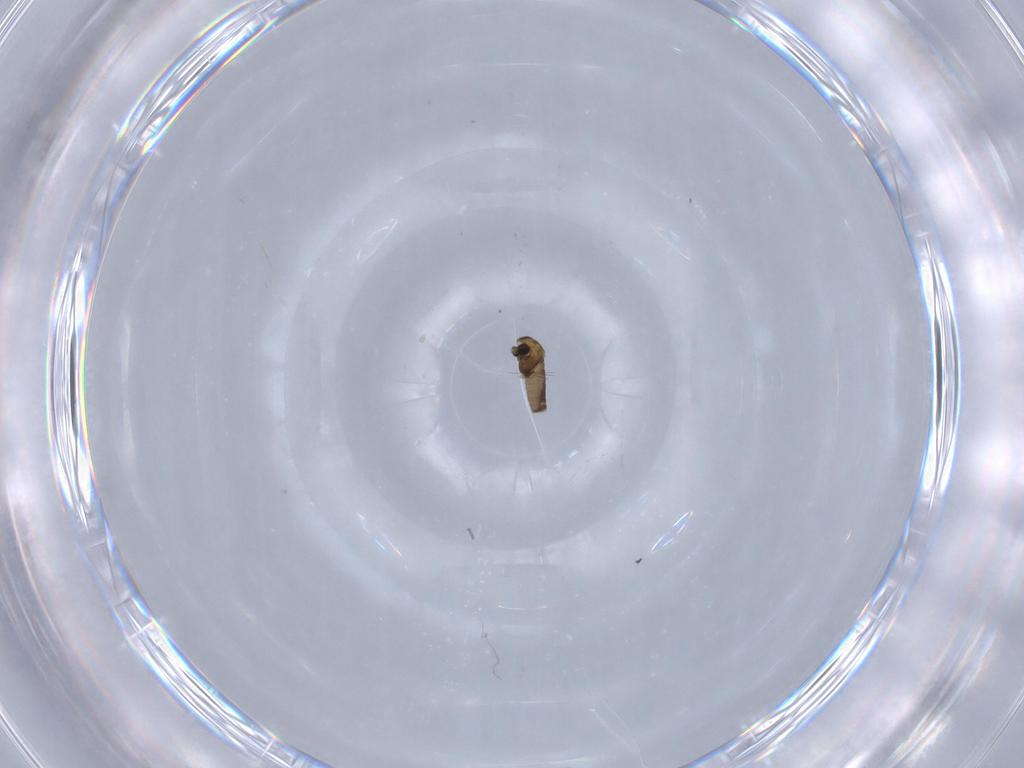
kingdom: Animalia
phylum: Arthropoda
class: Insecta
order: Diptera
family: Chironomidae
